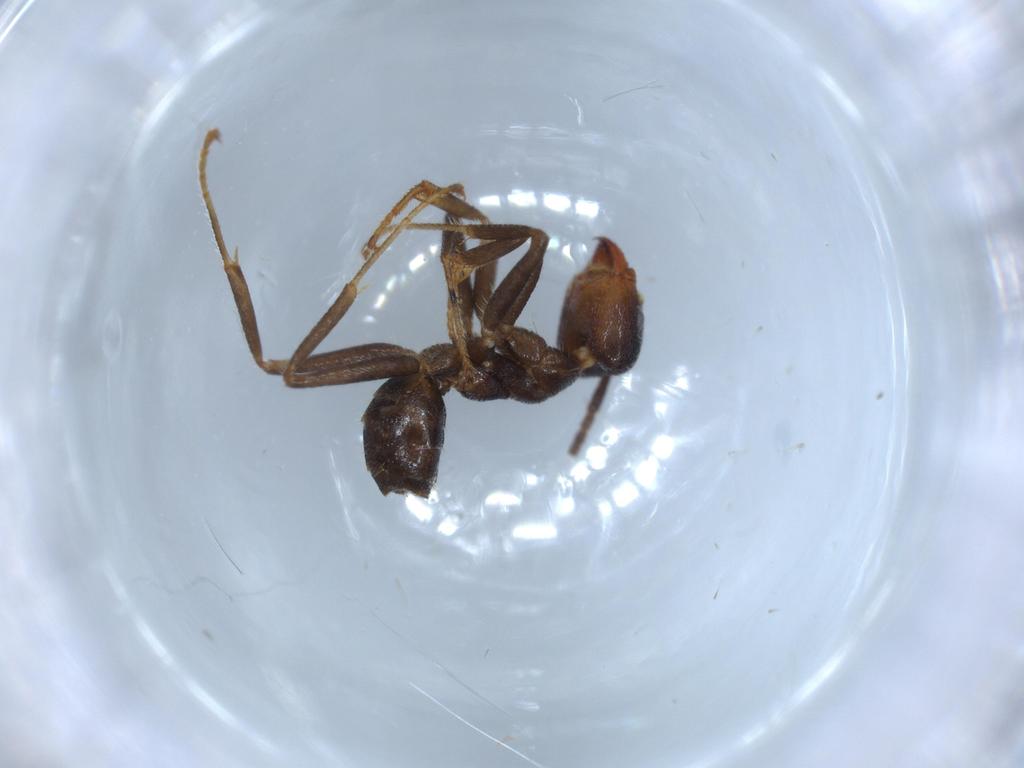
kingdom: Animalia
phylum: Arthropoda
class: Insecta
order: Hymenoptera
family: Formicidae
